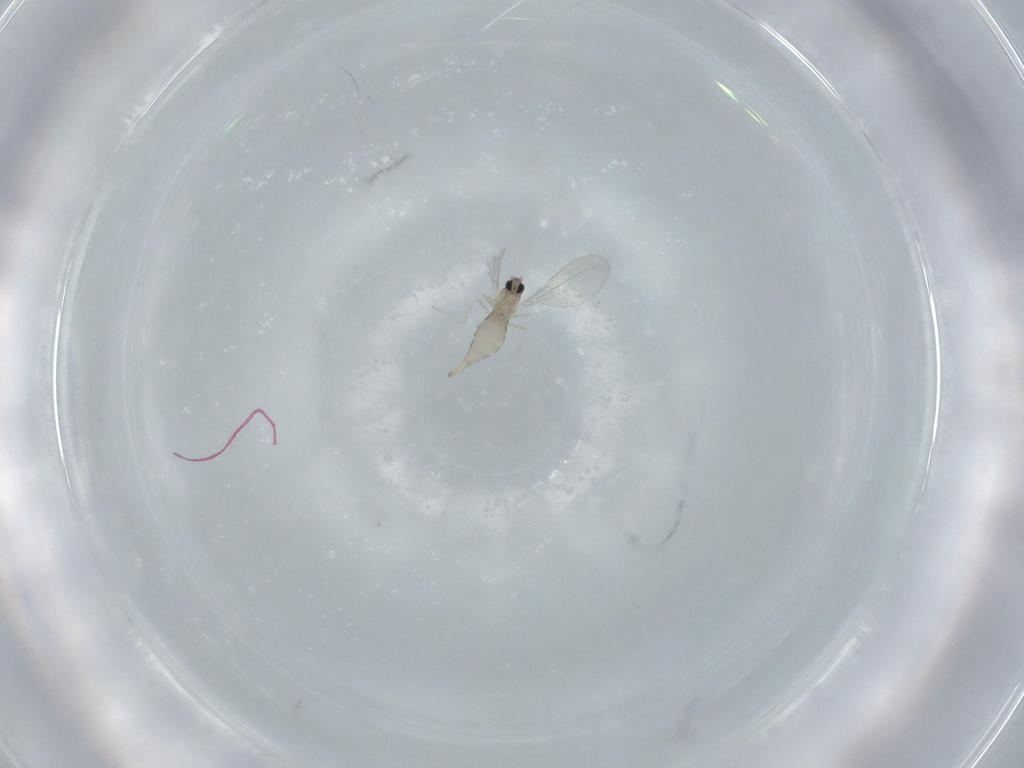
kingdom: Animalia
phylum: Arthropoda
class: Insecta
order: Diptera
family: Cecidomyiidae
